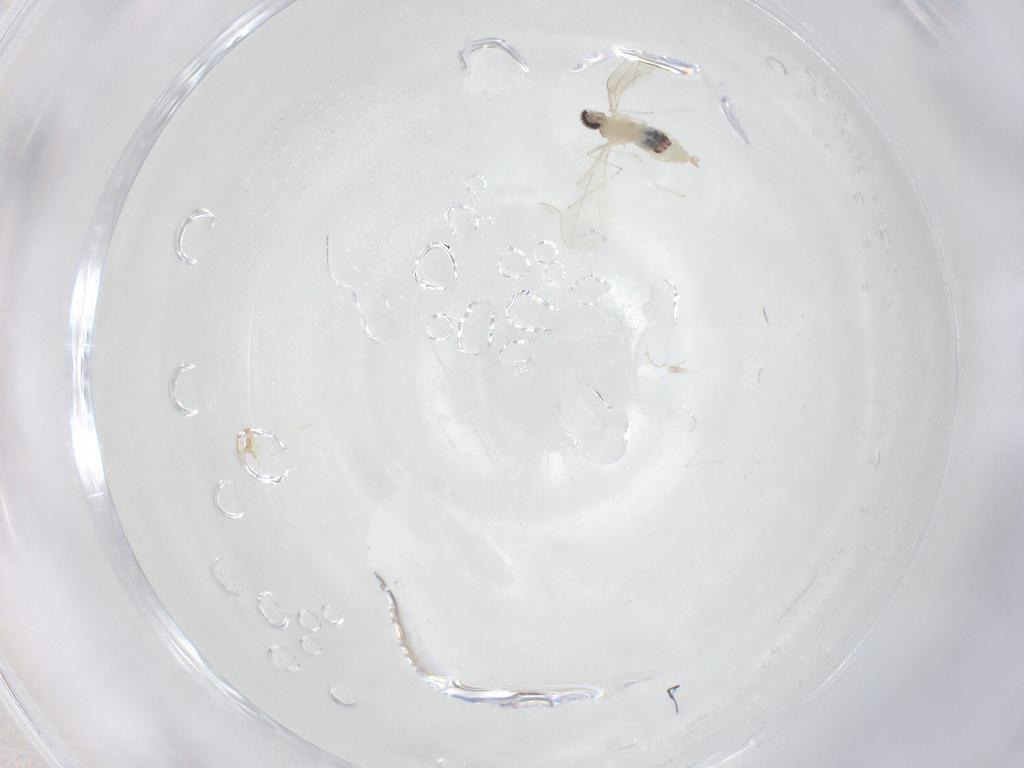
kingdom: Animalia
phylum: Arthropoda
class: Insecta
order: Diptera
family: Cecidomyiidae
